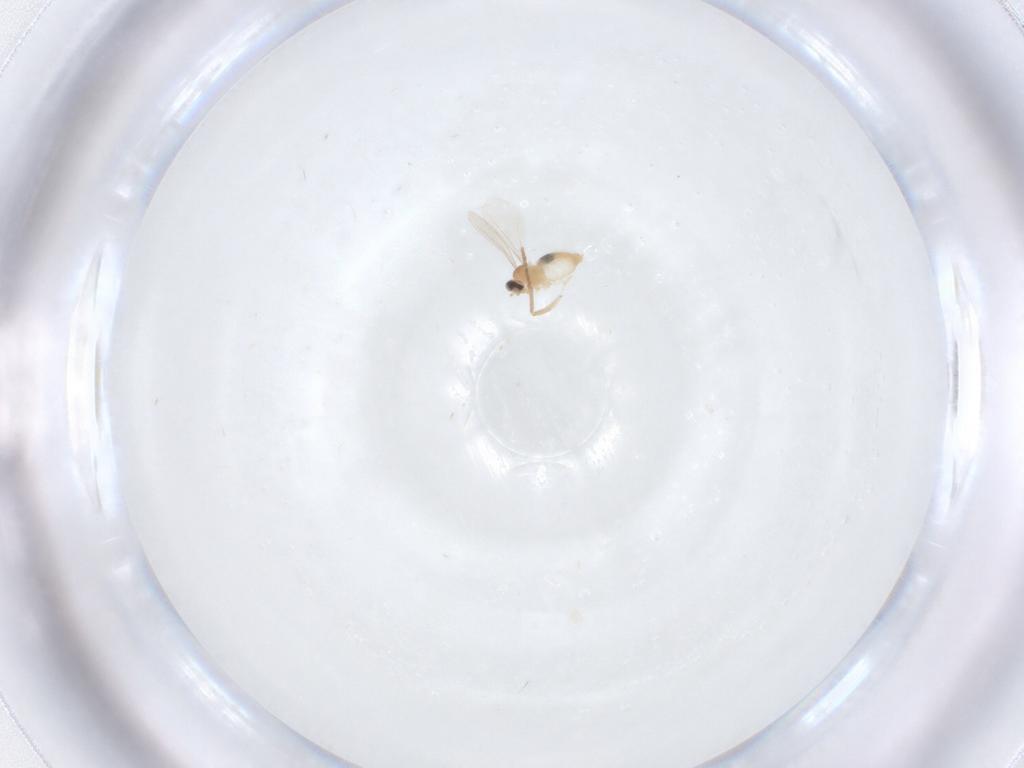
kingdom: Animalia
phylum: Arthropoda
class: Insecta
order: Diptera
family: Cecidomyiidae
